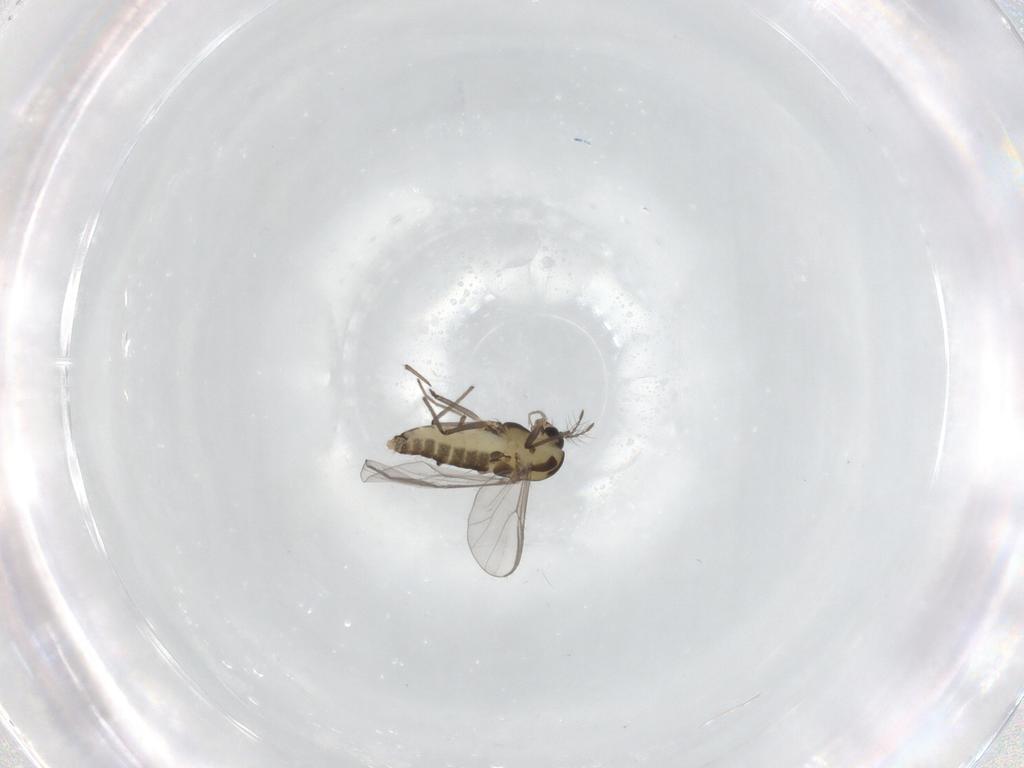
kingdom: Animalia
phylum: Arthropoda
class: Insecta
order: Diptera
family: Chironomidae
